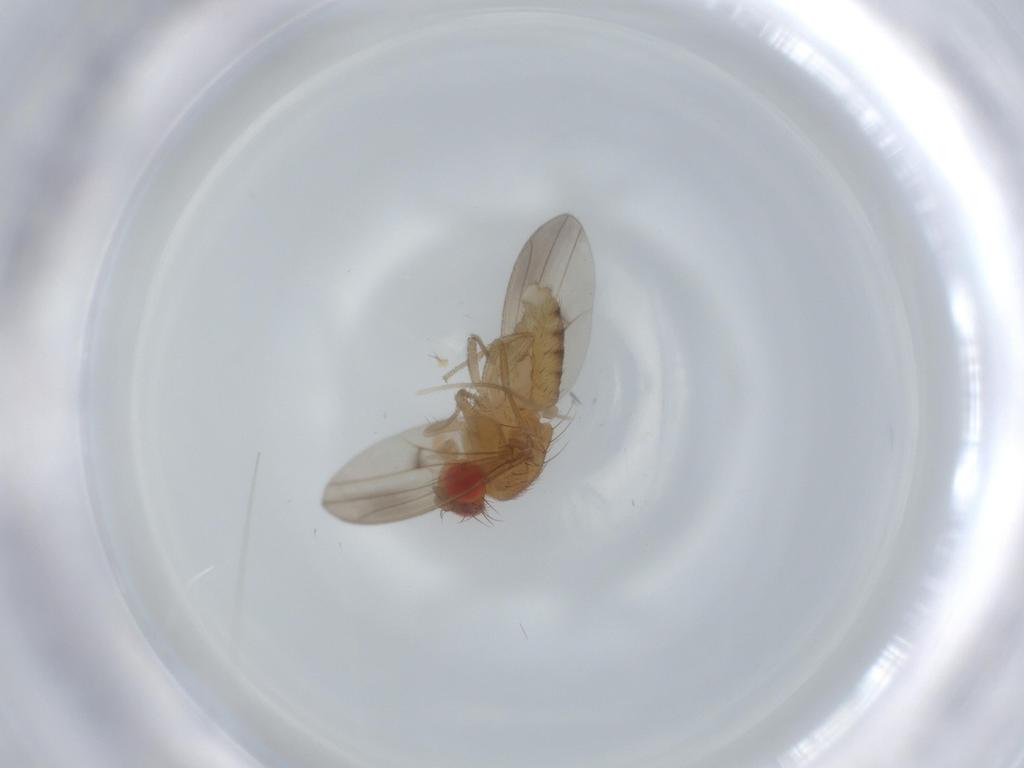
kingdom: Animalia
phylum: Arthropoda
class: Insecta
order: Diptera
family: Drosophilidae
